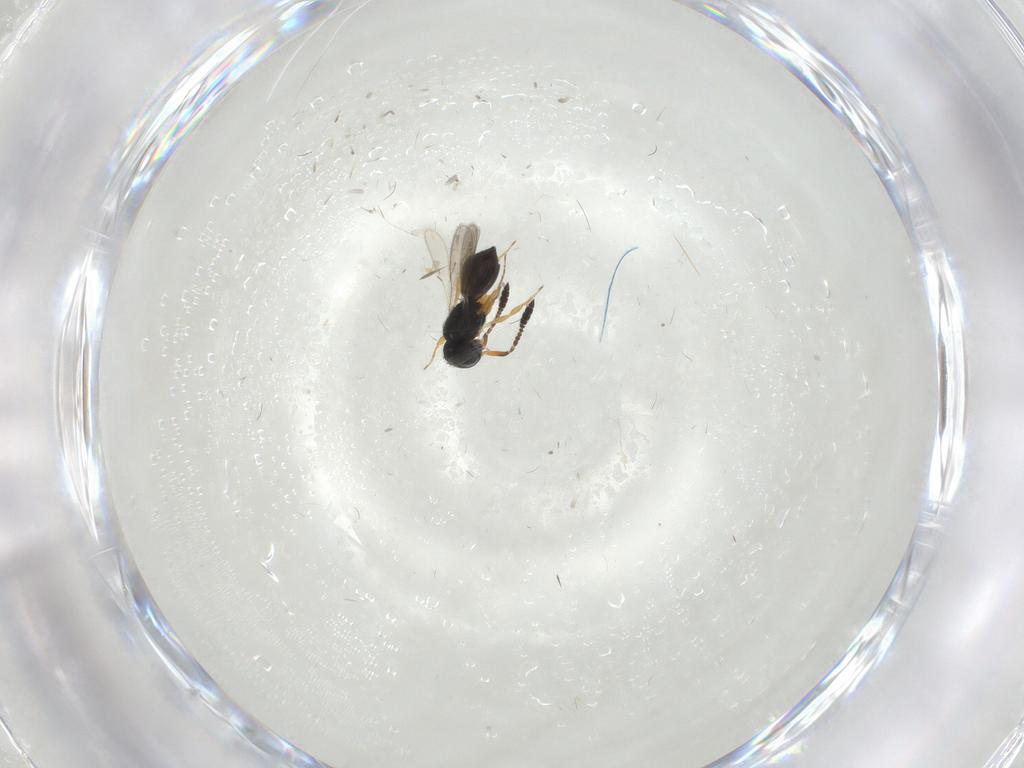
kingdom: Animalia
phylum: Arthropoda
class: Insecta
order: Hymenoptera
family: Scelionidae
